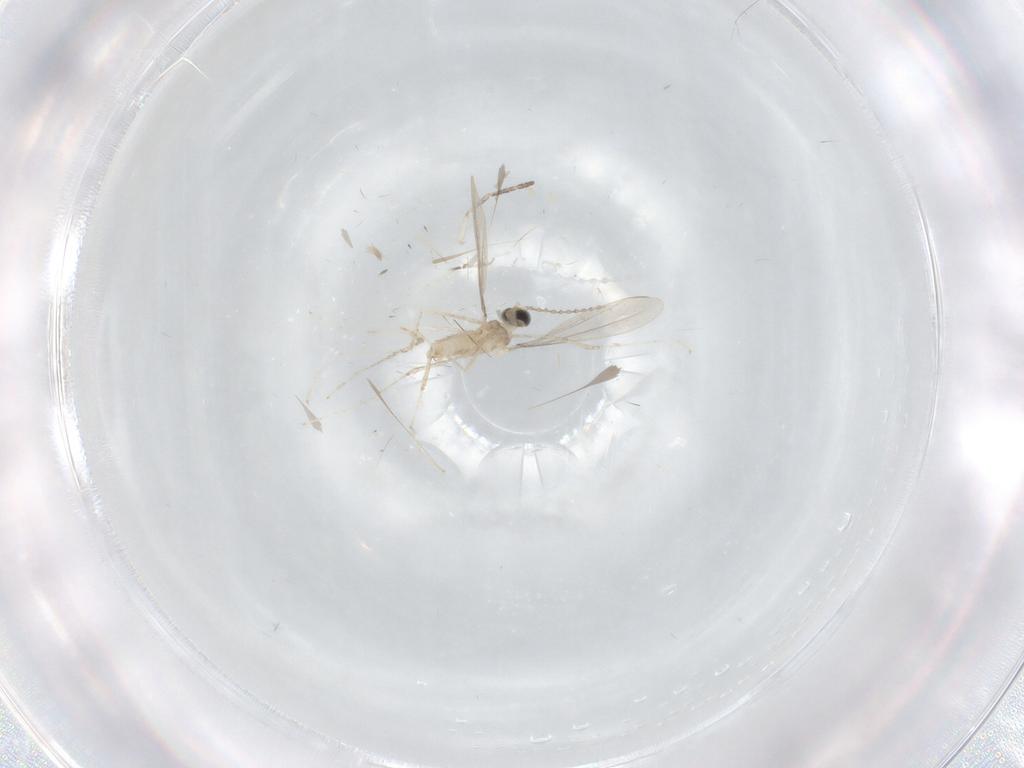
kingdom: Animalia
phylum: Arthropoda
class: Insecta
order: Diptera
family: Cecidomyiidae
